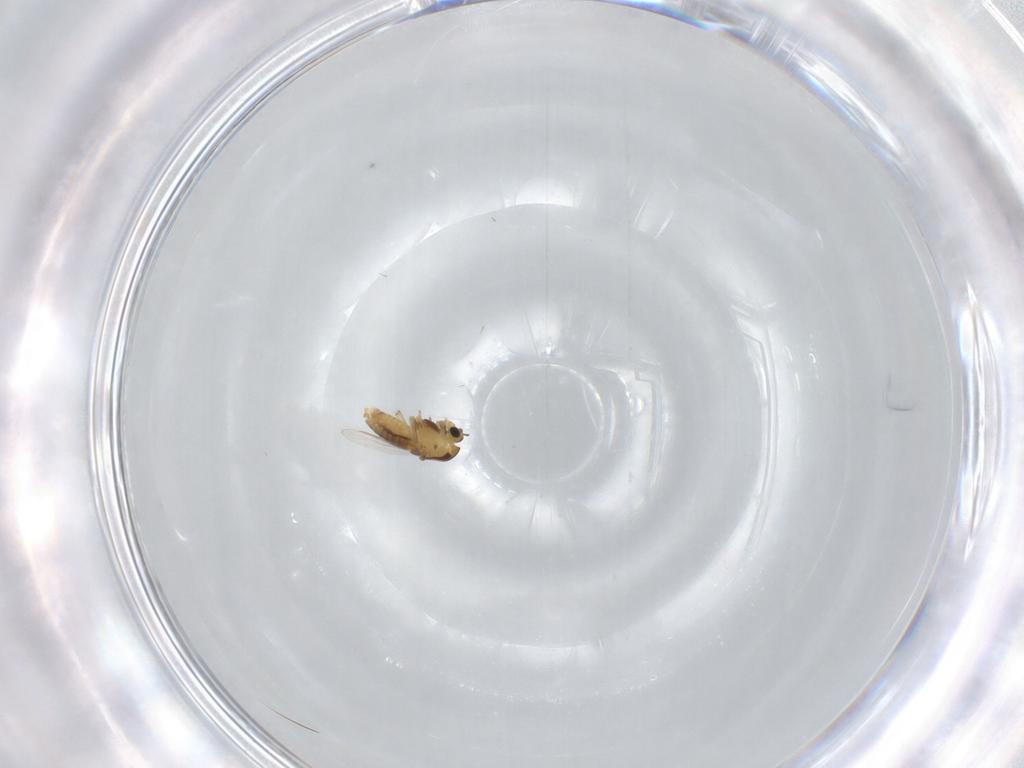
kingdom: Animalia
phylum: Arthropoda
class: Insecta
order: Diptera
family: Chironomidae
